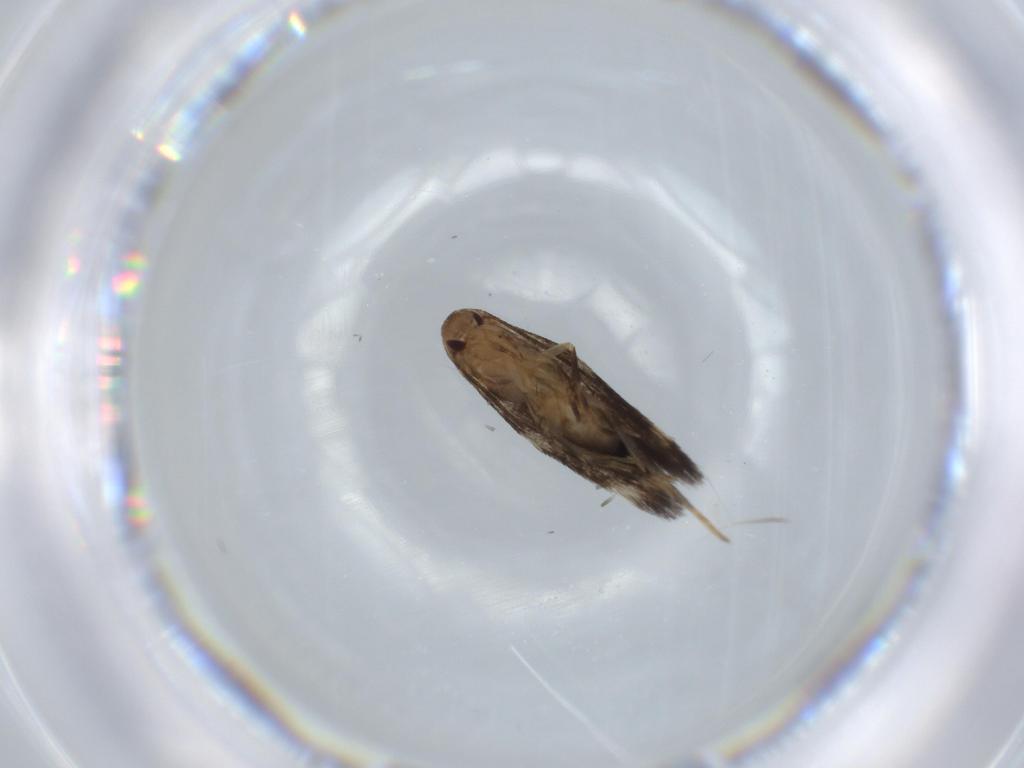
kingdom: Animalia
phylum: Arthropoda
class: Insecta
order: Lepidoptera
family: Cosmopterigidae
